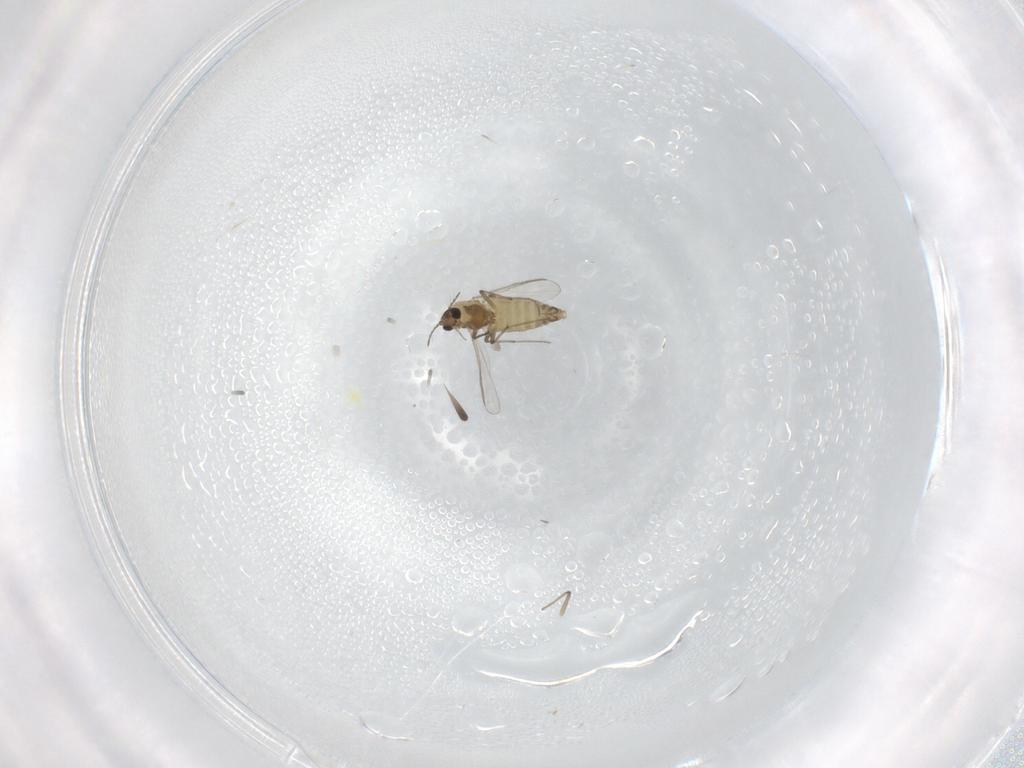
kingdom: Animalia
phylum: Arthropoda
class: Insecta
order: Diptera
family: Chironomidae
